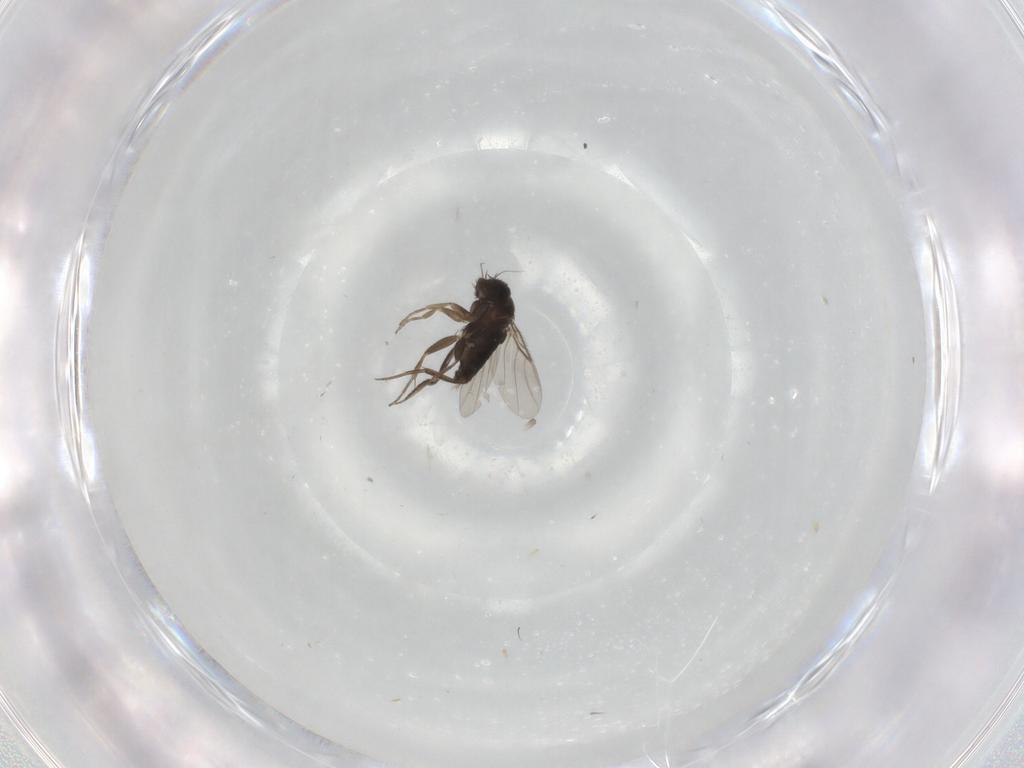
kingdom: Animalia
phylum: Arthropoda
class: Insecta
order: Diptera
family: Phoridae
